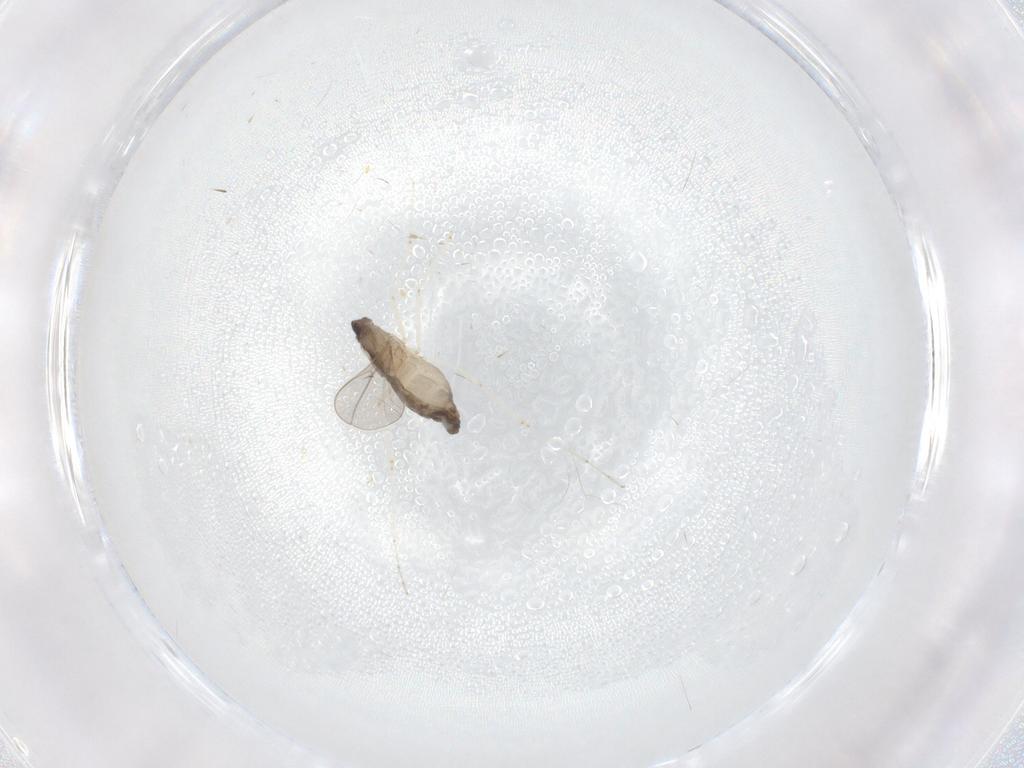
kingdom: Animalia
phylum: Arthropoda
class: Insecta
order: Diptera
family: Cecidomyiidae
